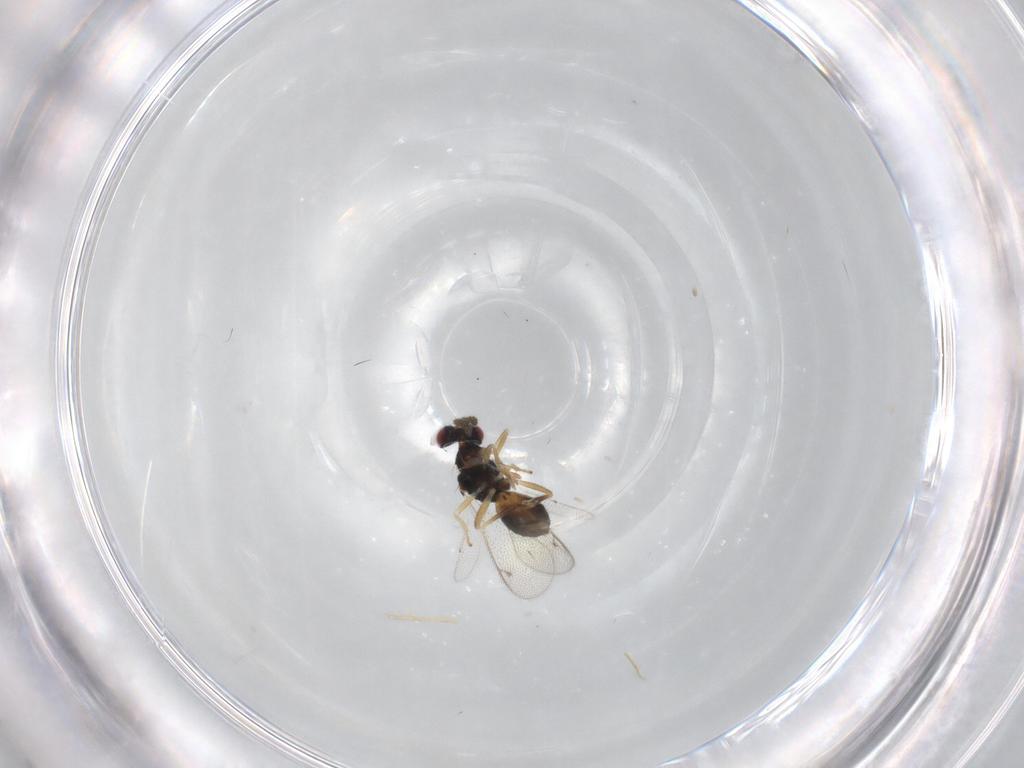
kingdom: Animalia
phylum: Arthropoda
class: Insecta
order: Hymenoptera
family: Eulophidae
